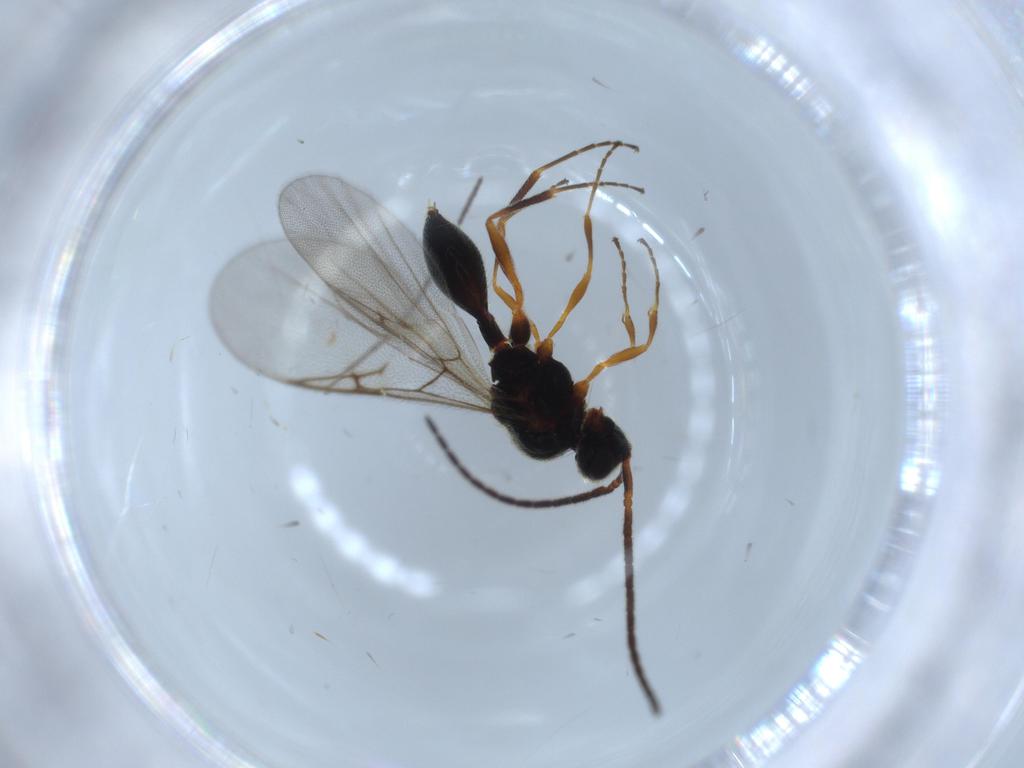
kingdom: Animalia
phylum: Arthropoda
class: Insecta
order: Hymenoptera
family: Diapriidae
